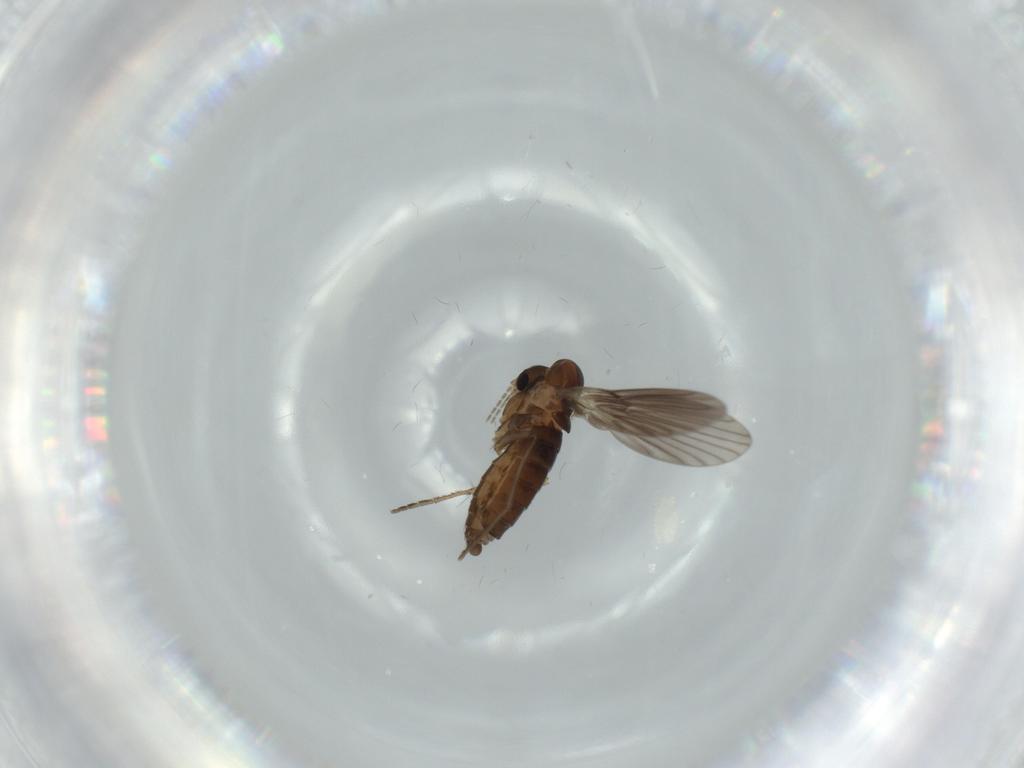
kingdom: Animalia
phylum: Arthropoda
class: Insecta
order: Diptera
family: Psychodidae
